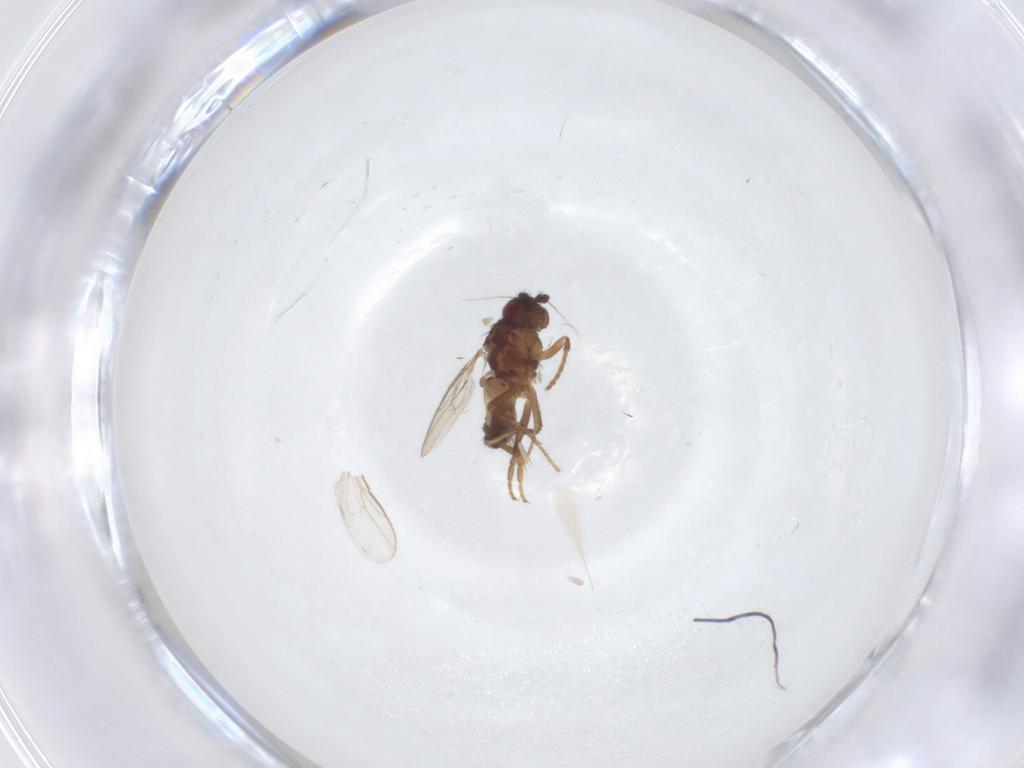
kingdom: Animalia
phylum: Arthropoda
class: Insecta
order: Diptera
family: Sphaeroceridae
